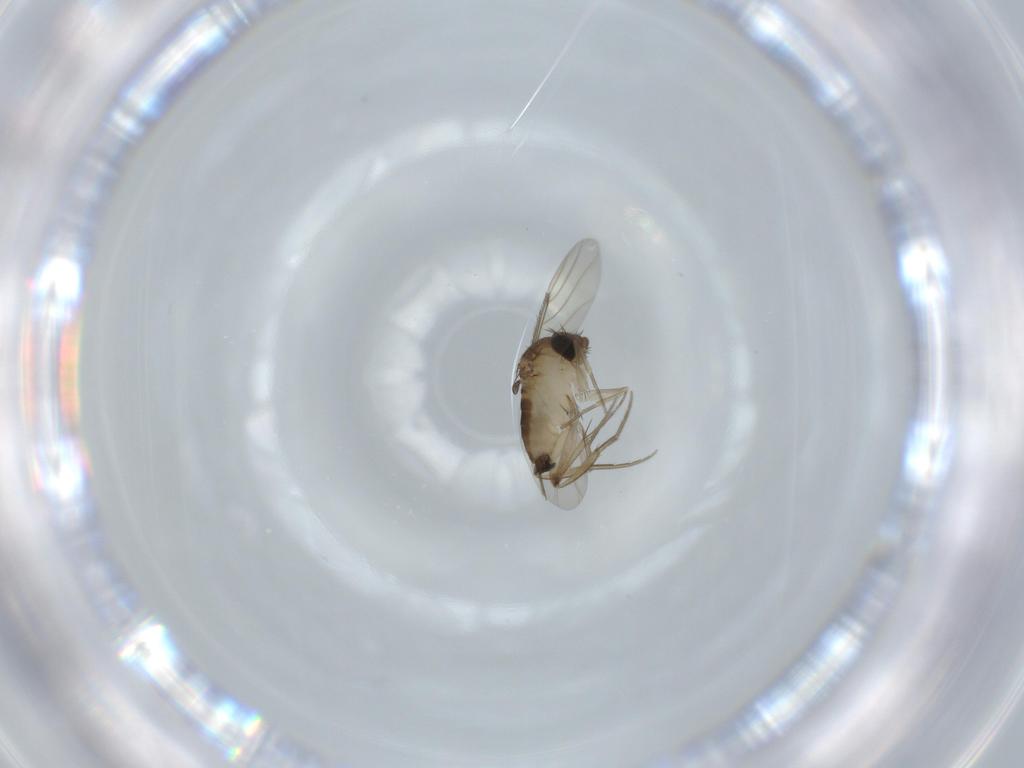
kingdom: Animalia
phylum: Arthropoda
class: Insecta
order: Diptera
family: Phoridae
